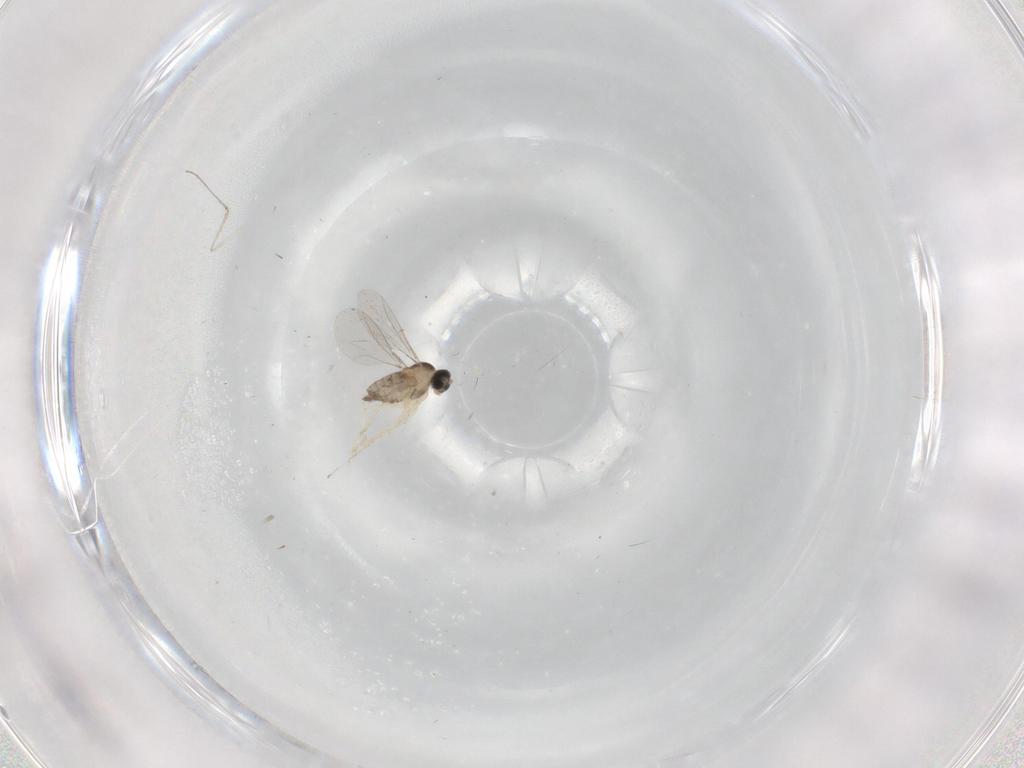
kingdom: Animalia
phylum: Arthropoda
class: Insecta
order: Diptera
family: Cecidomyiidae
